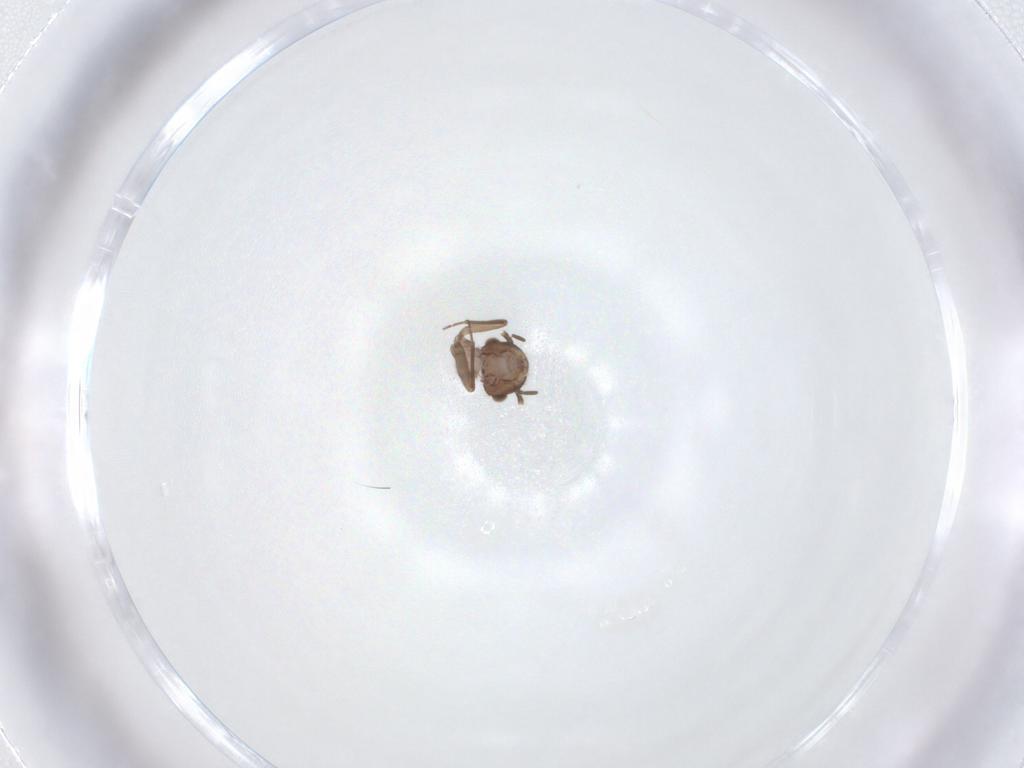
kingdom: Animalia
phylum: Arthropoda
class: Insecta
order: Psocodea
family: Ectopsocidae
